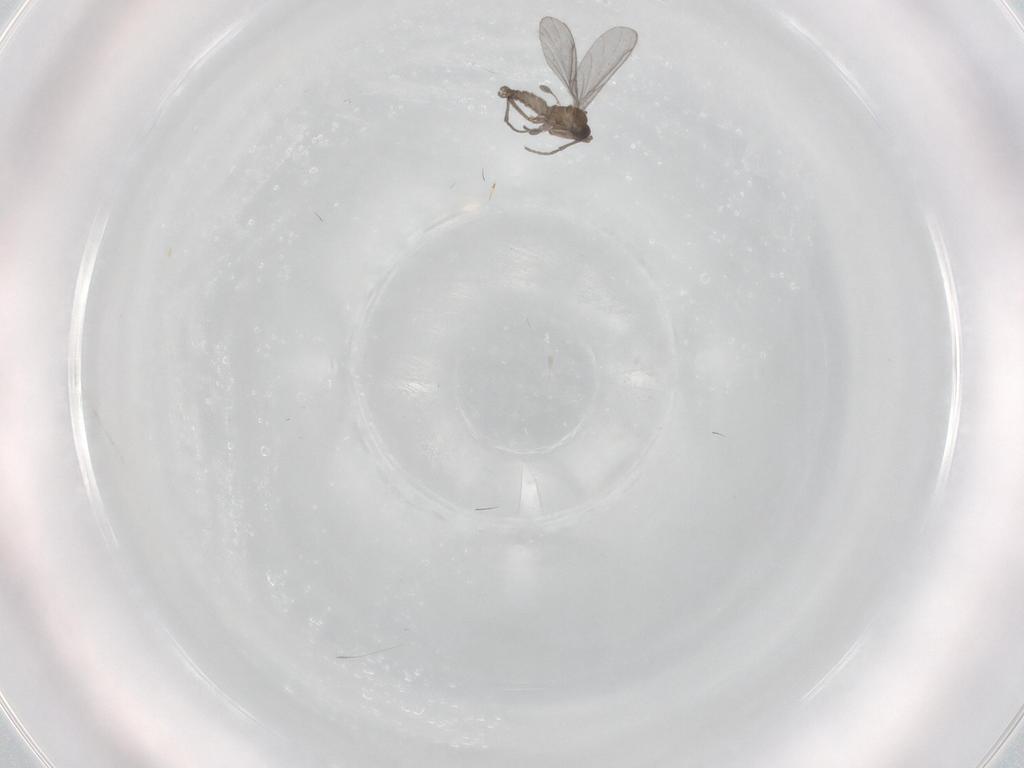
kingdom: Animalia
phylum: Arthropoda
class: Insecta
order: Diptera
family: Sciaridae
